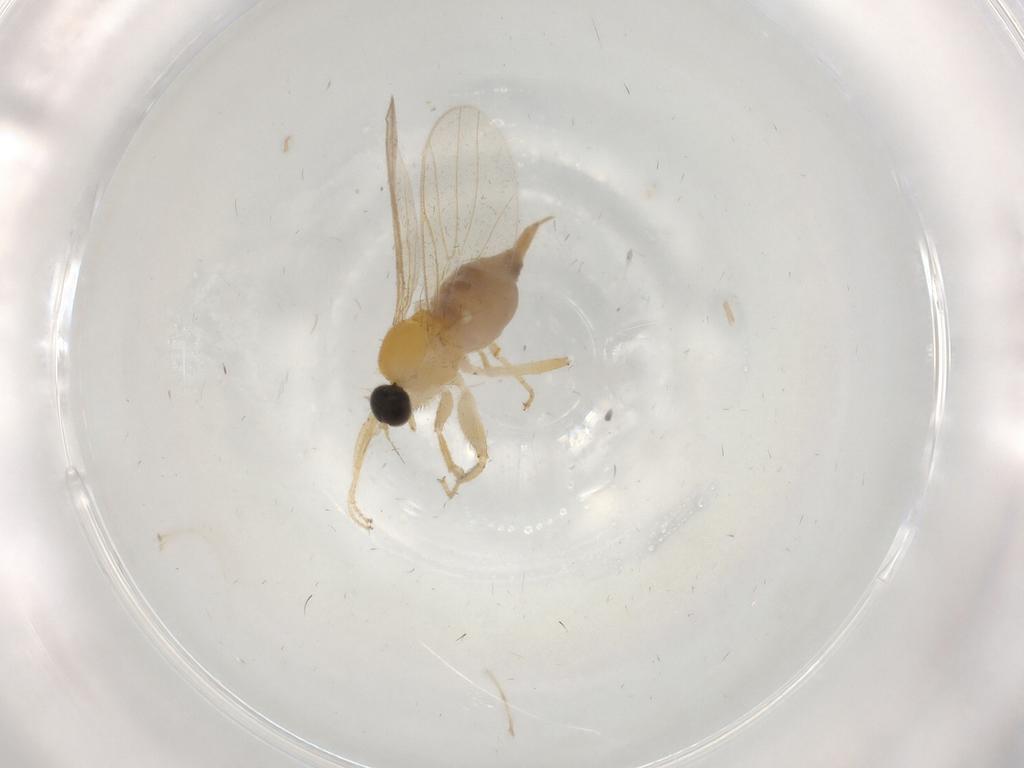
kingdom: Animalia
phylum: Arthropoda
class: Insecta
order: Diptera
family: Hybotidae
